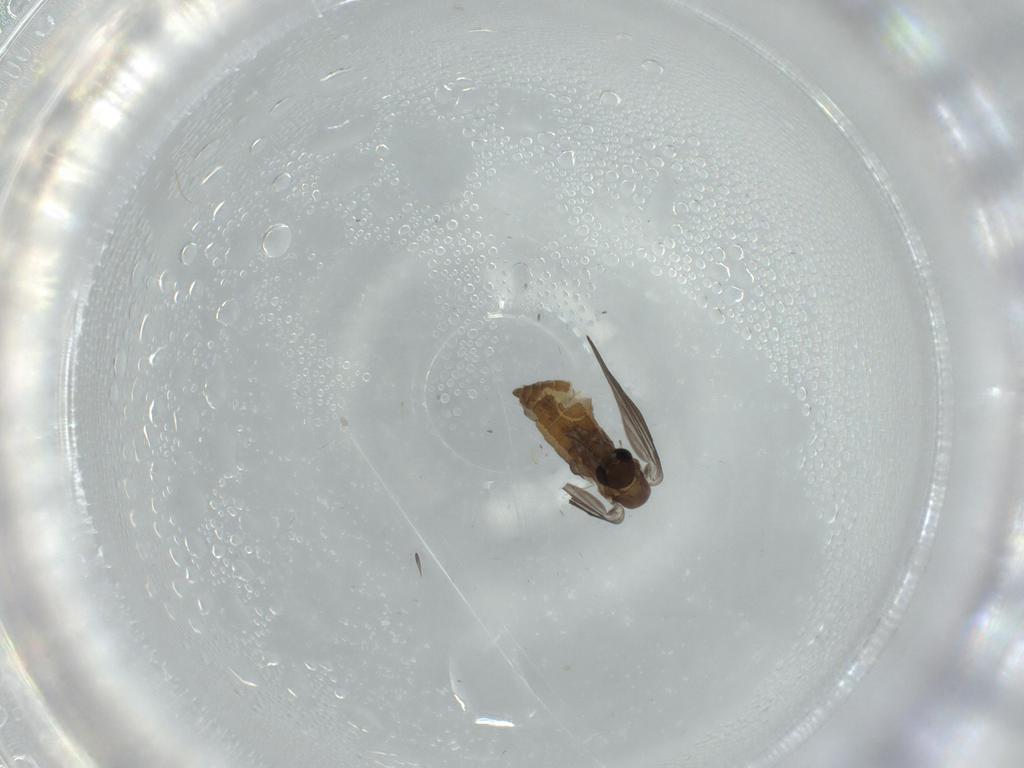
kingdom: Animalia
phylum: Arthropoda
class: Insecta
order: Diptera
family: Psychodidae
